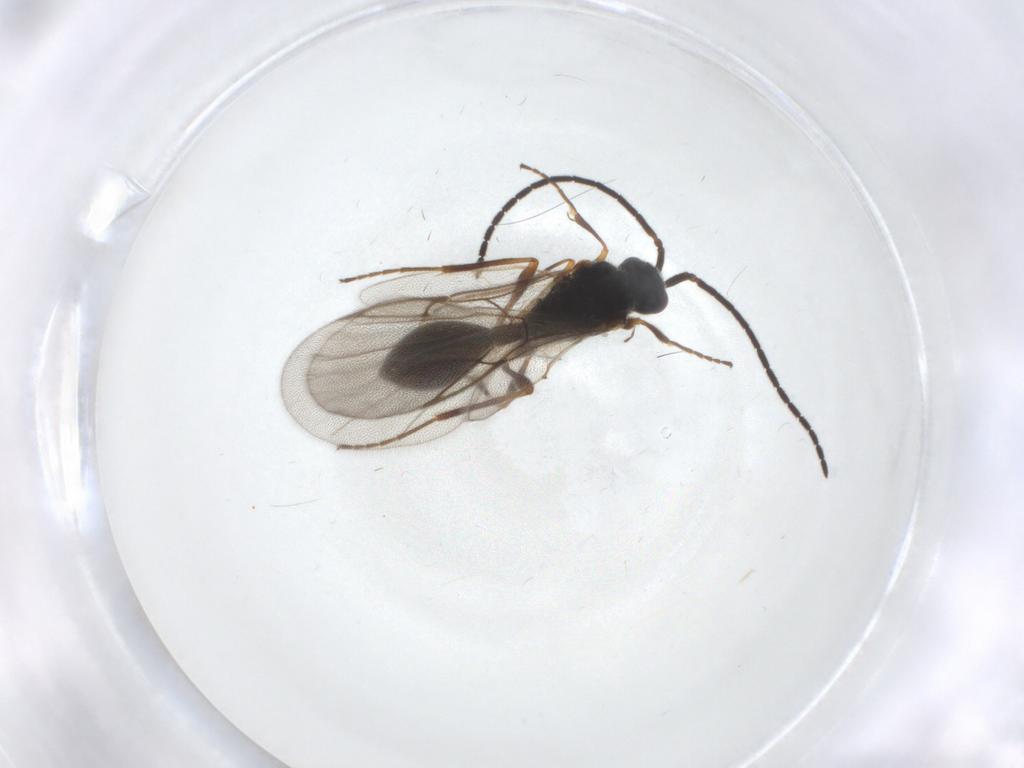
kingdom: Animalia
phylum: Arthropoda
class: Insecta
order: Hymenoptera
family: Diapriidae
